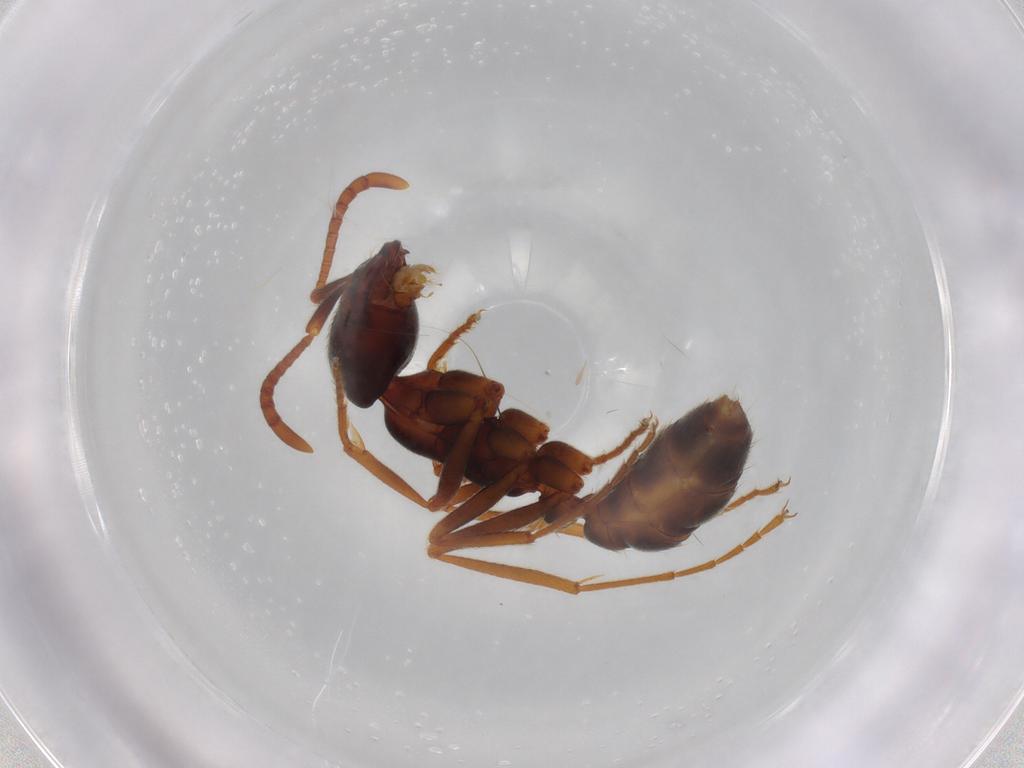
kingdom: Animalia
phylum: Arthropoda
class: Insecta
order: Hymenoptera
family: Formicidae
